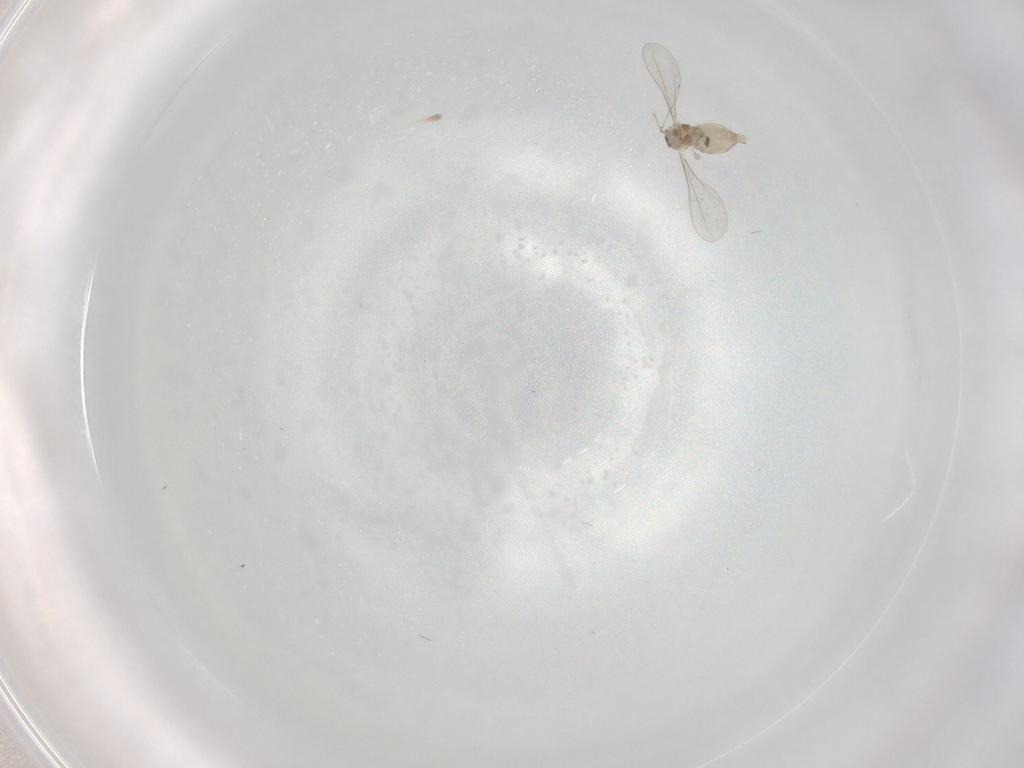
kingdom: Animalia
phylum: Arthropoda
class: Insecta
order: Diptera
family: Cecidomyiidae
